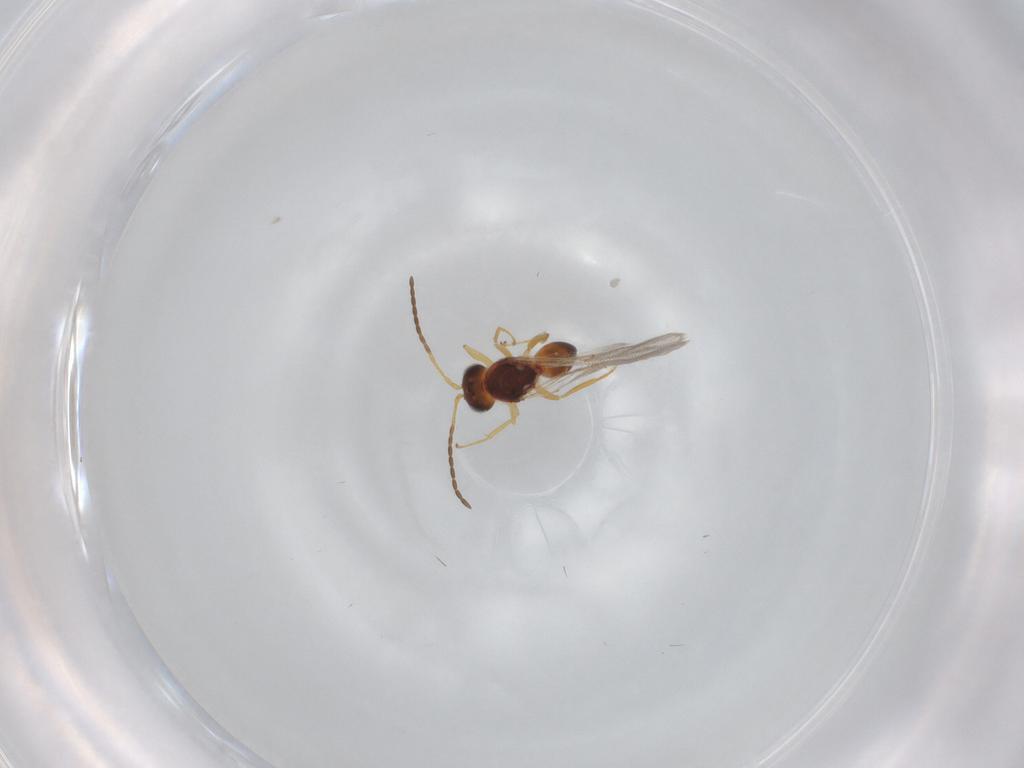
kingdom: Animalia
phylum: Arthropoda
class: Insecta
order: Hymenoptera
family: Figitidae
